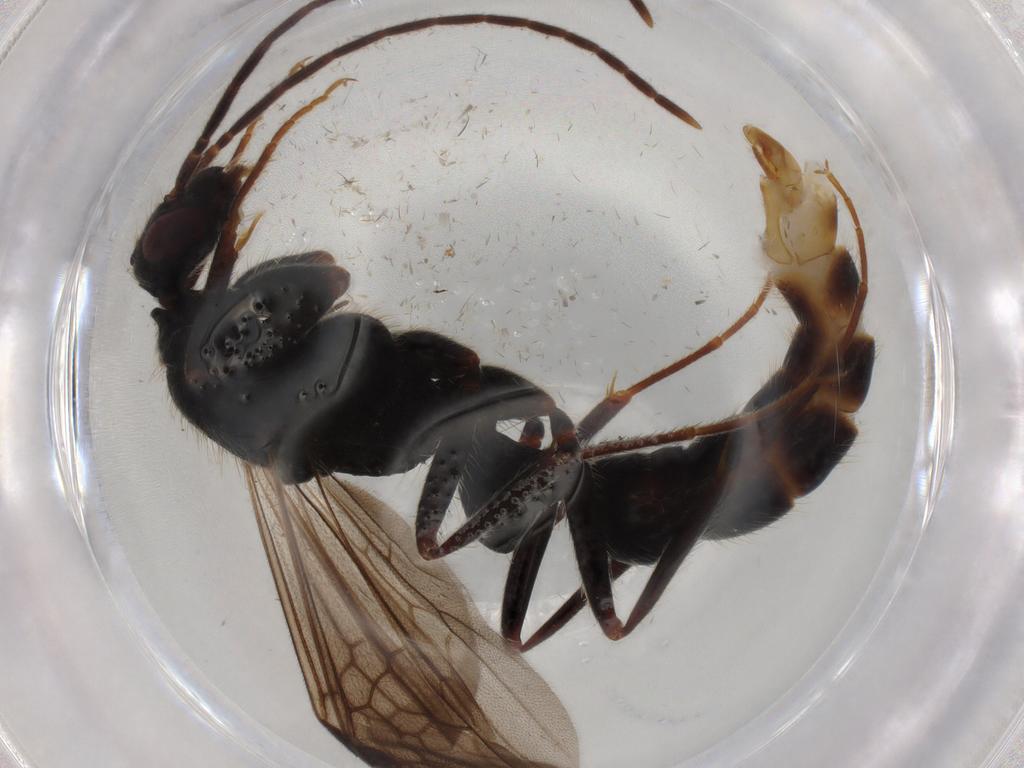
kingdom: Animalia
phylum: Arthropoda
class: Insecta
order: Hymenoptera
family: Formicidae
